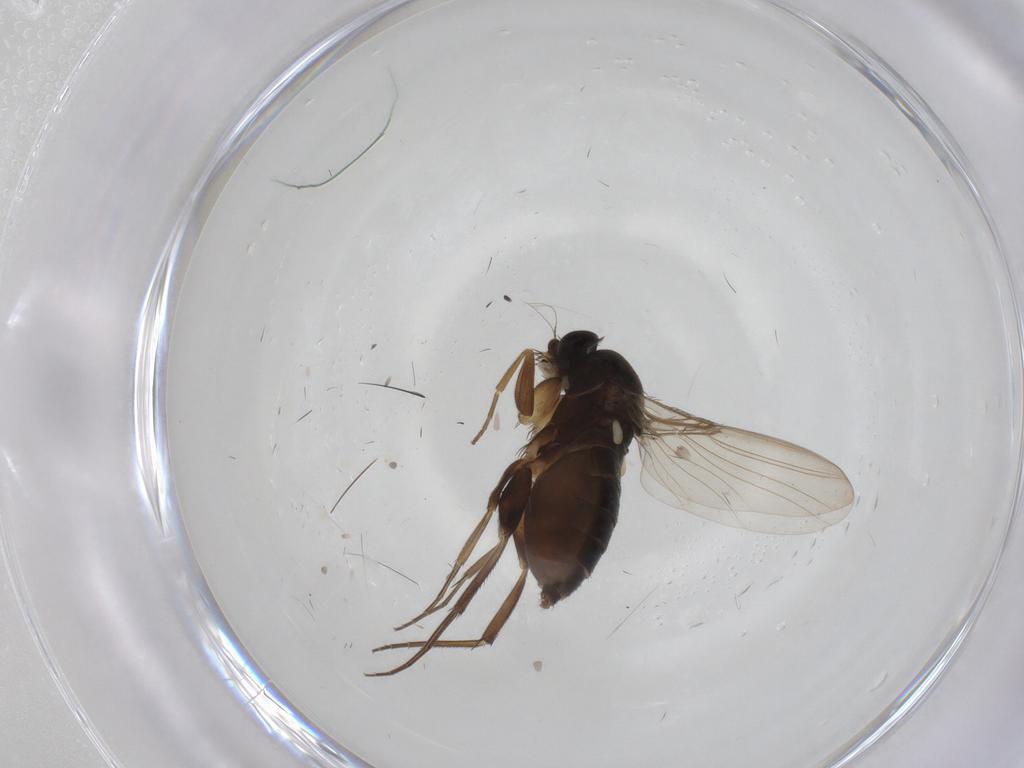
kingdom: Animalia
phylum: Arthropoda
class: Insecta
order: Diptera
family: Phoridae
